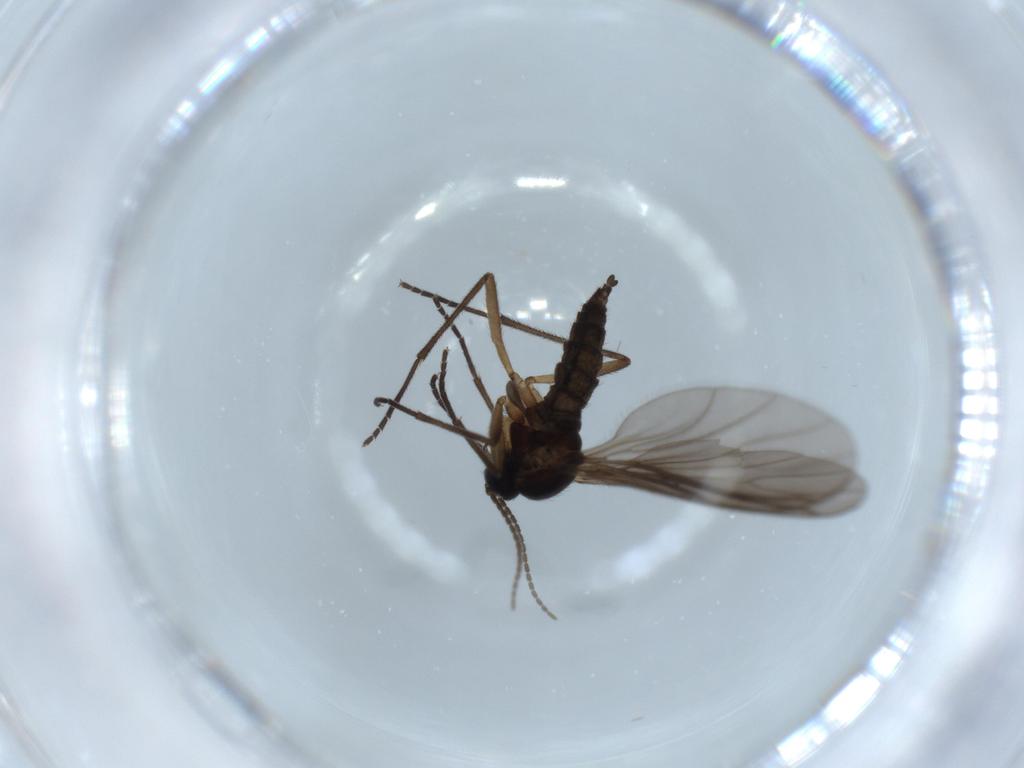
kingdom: Animalia
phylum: Arthropoda
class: Insecta
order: Diptera
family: Sciaridae
